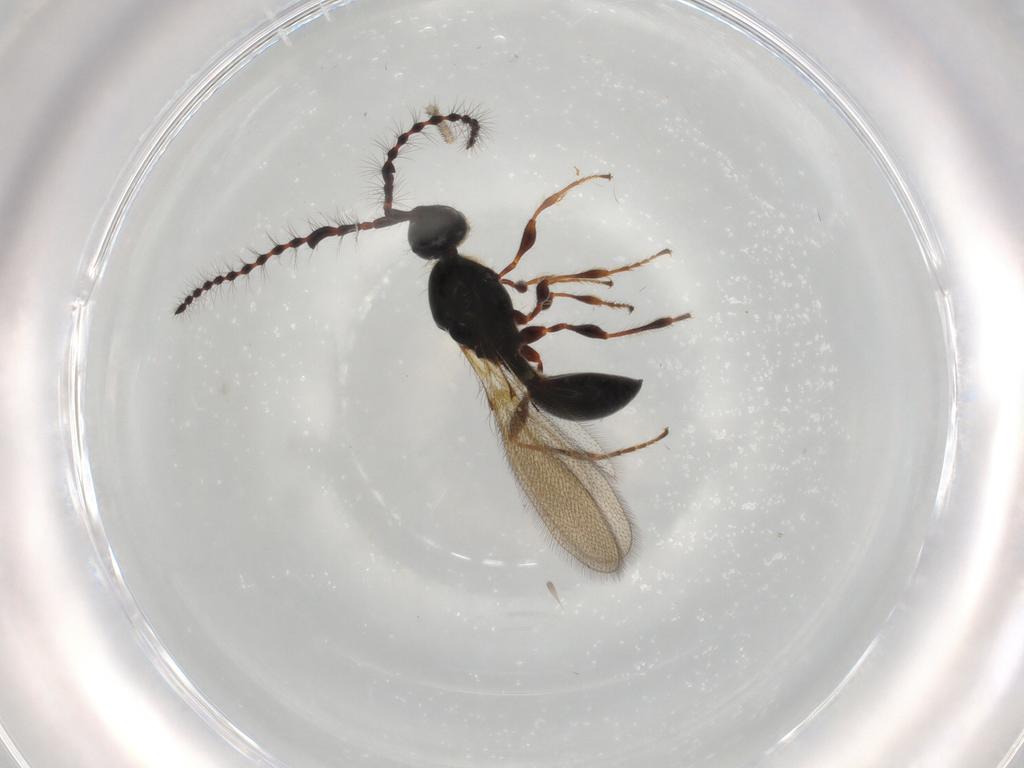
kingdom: Animalia
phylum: Arthropoda
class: Insecta
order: Hymenoptera
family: Diapriidae
